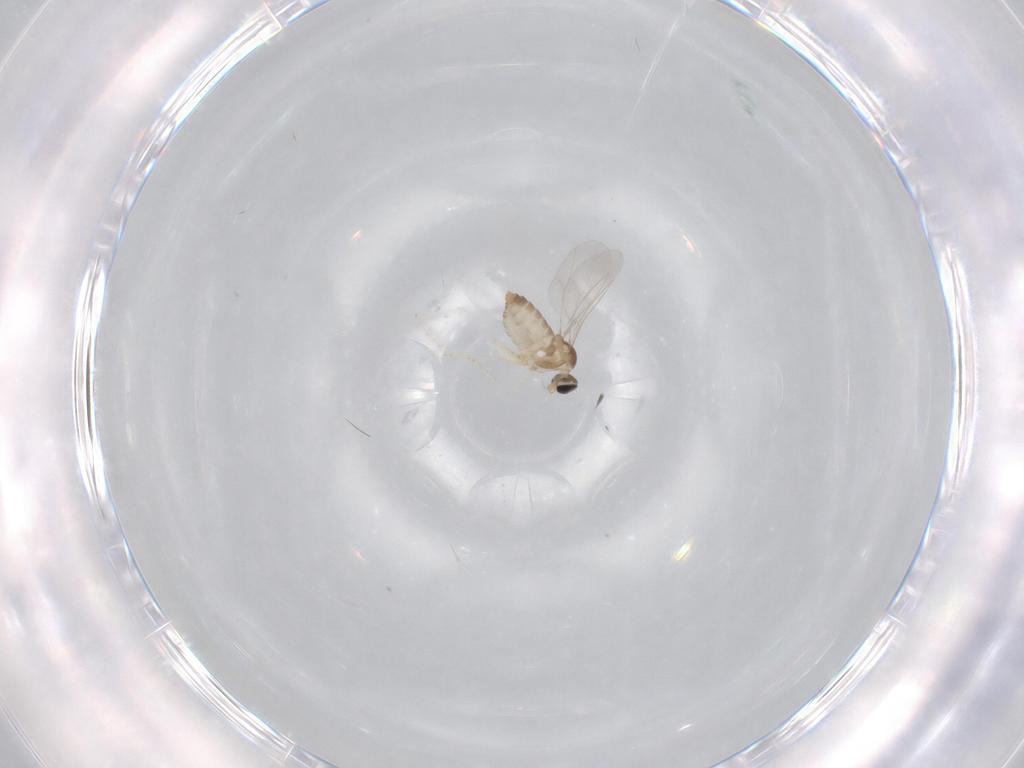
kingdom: Animalia
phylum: Arthropoda
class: Insecta
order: Diptera
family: Cecidomyiidae
